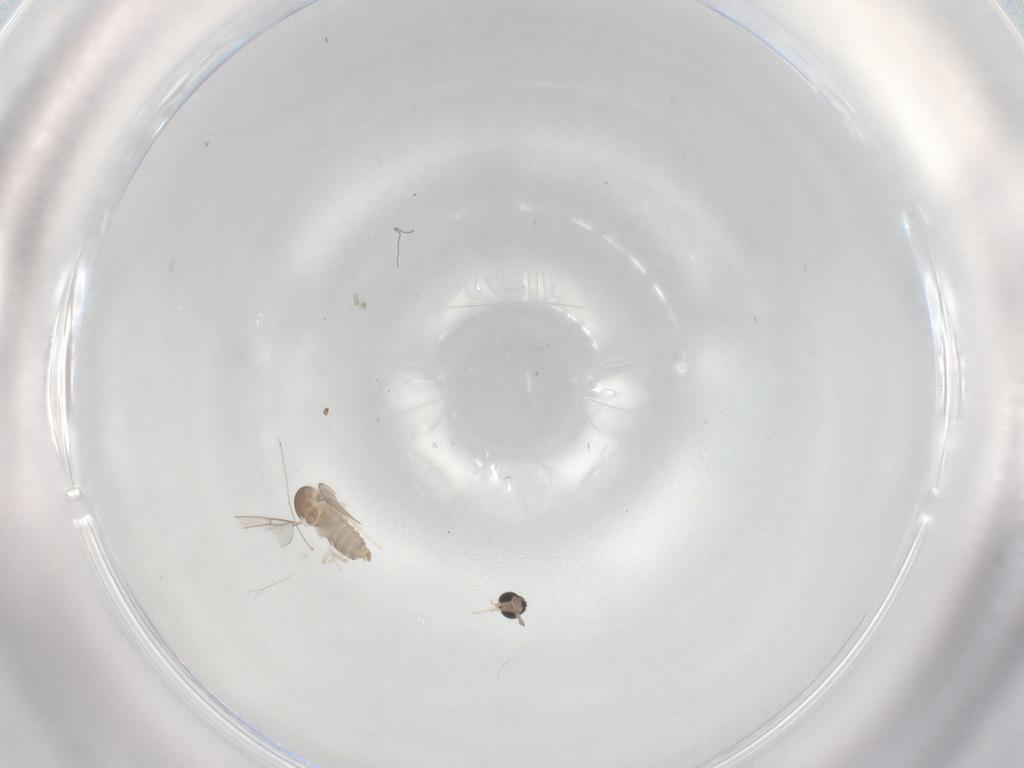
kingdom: Animalia
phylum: Arthropoda
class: Insecta
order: Diptera
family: Cecidomyiidae
